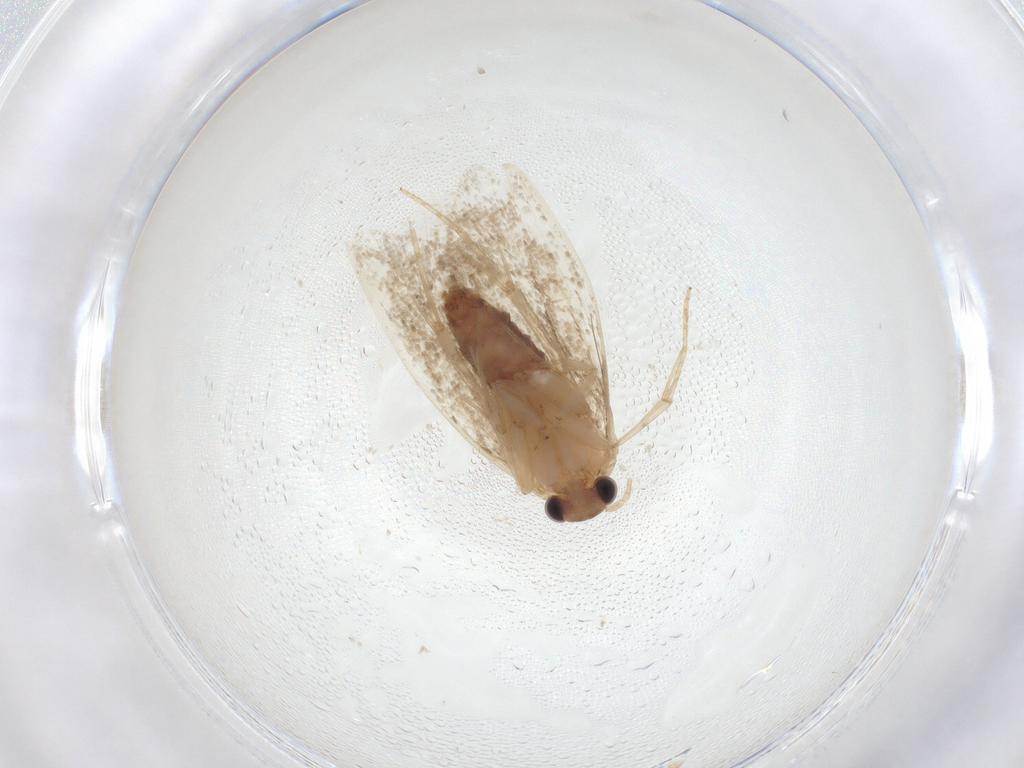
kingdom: Animalia
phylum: Arthropoda
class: Insecta
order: Lepidoptera
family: Tineidae
